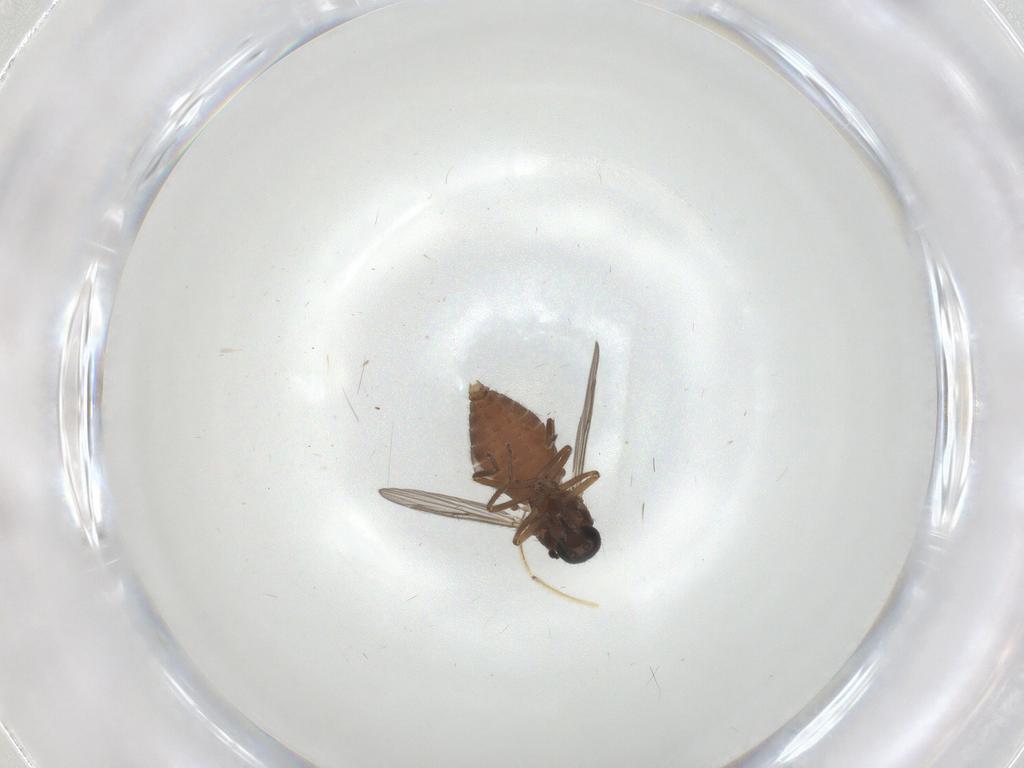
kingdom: Animalia
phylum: Arthropoda
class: Insecta
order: Diptera
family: Ceratopogonidae
